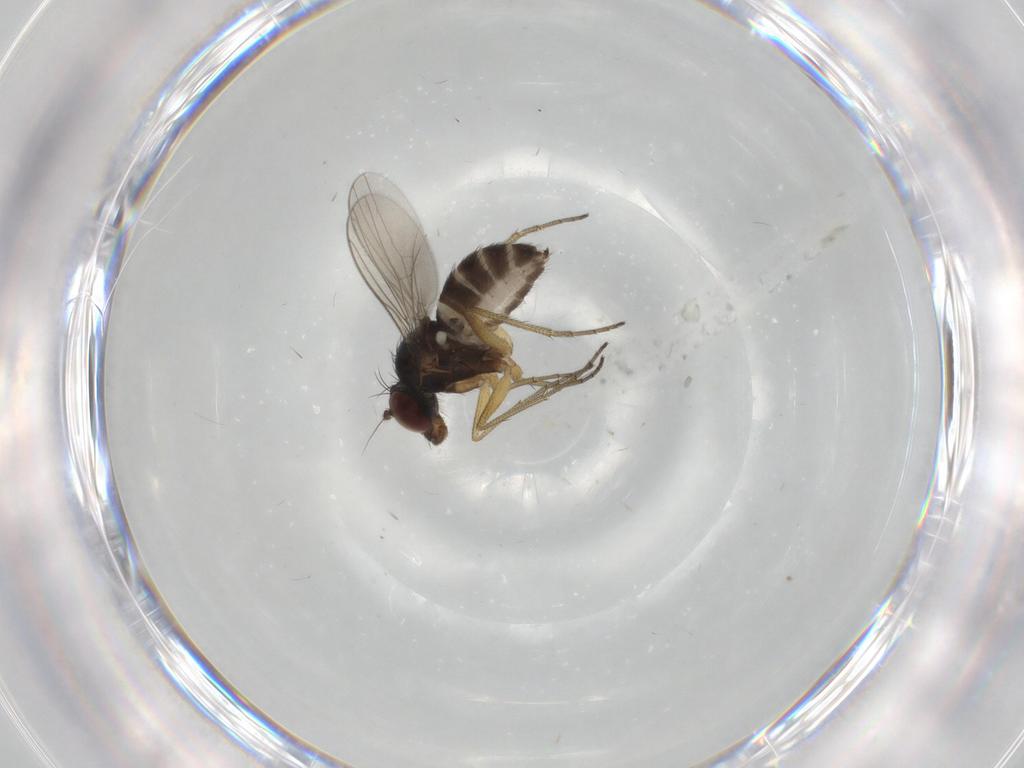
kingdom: Animalia
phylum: Arthropoda
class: Insecta
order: Diptera
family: Dolichopodidae
